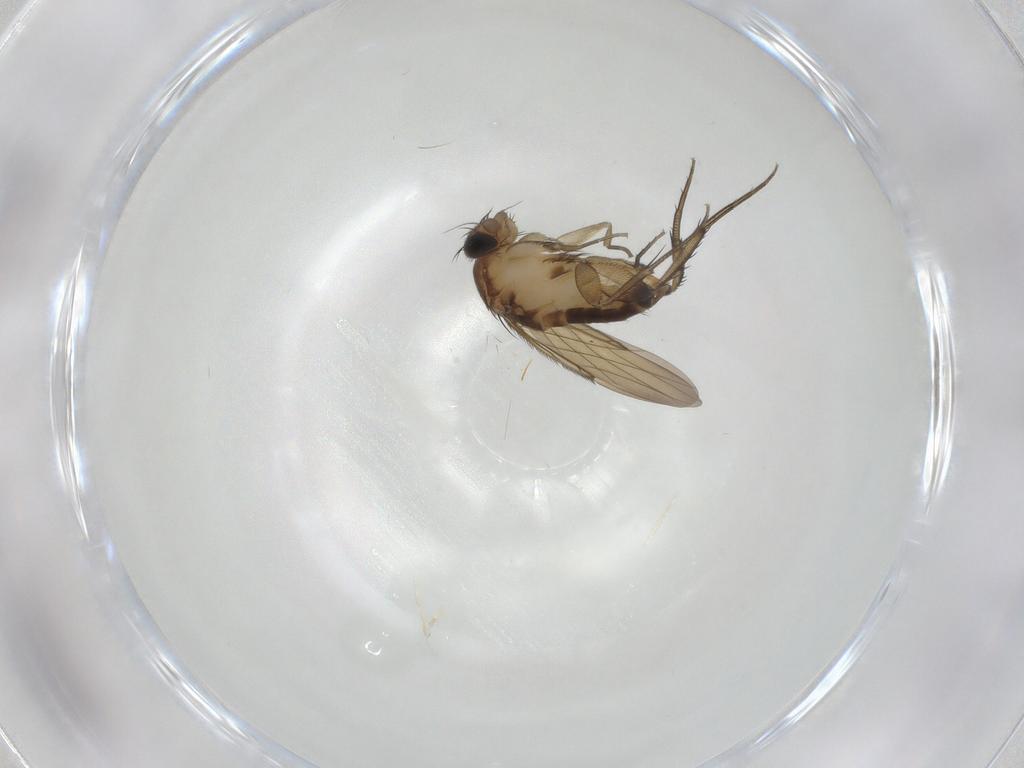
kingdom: Animalia
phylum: Arthropoda
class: Insecta
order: Diptera
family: Phoridae
